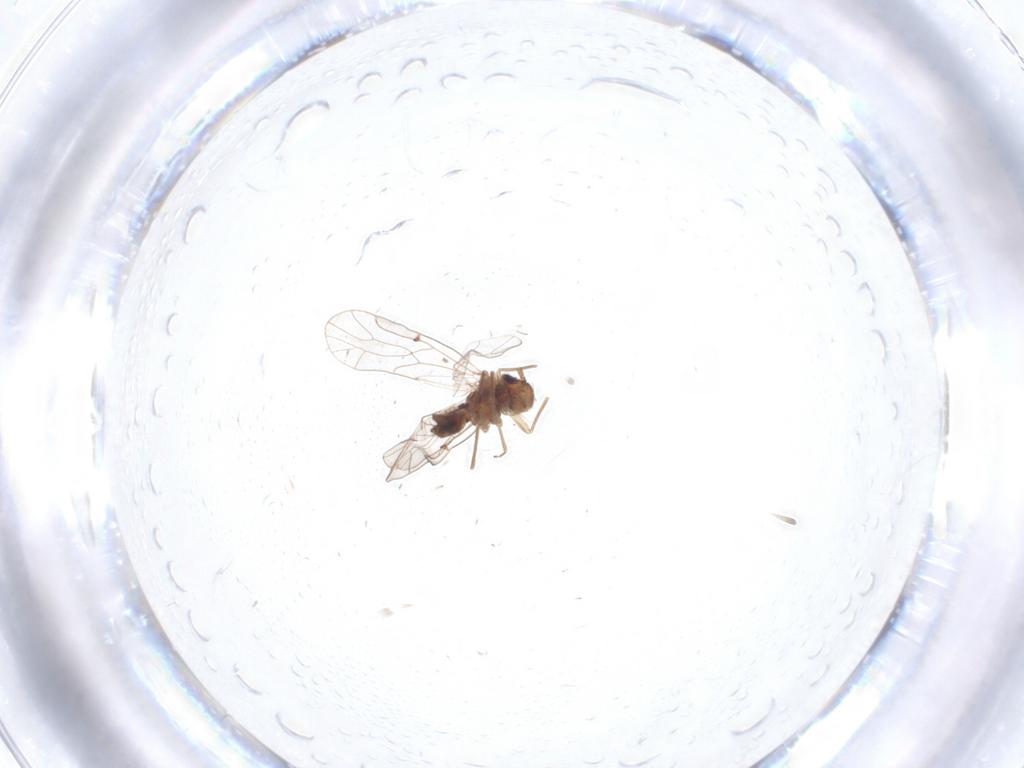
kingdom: Animalia
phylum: Arthropoda
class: Insecta
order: Psocodea
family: Ectopsocidae
